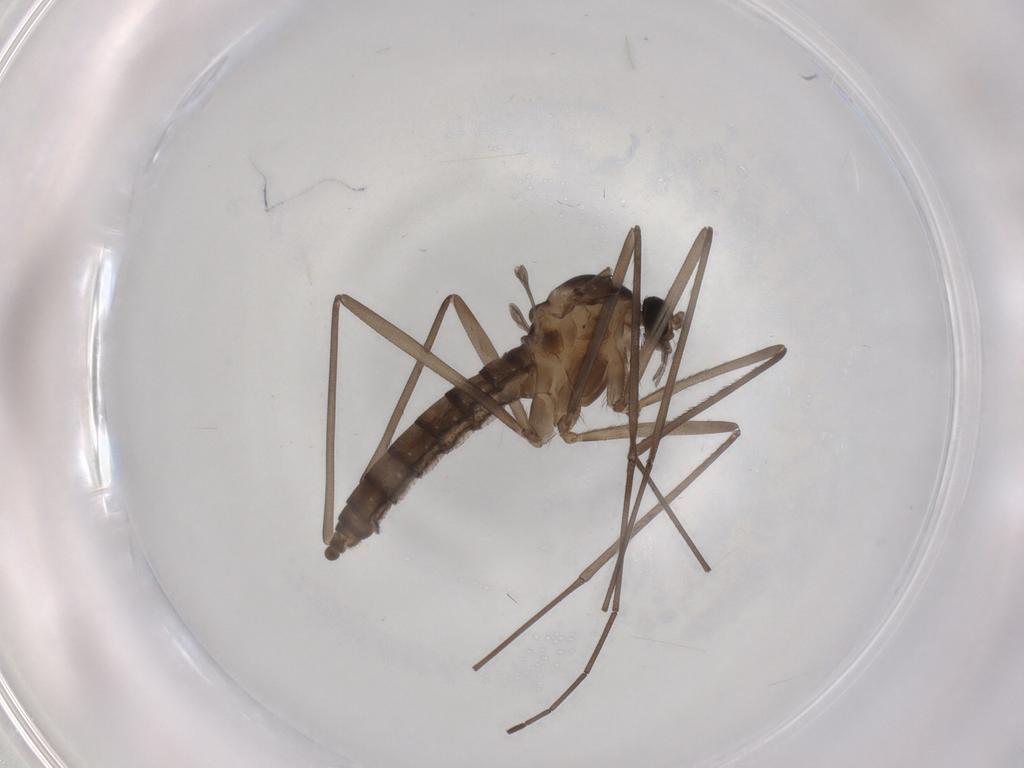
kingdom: Animalia
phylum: Arthropoda
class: Insecta
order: Diptera
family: Cecidomyiidae
